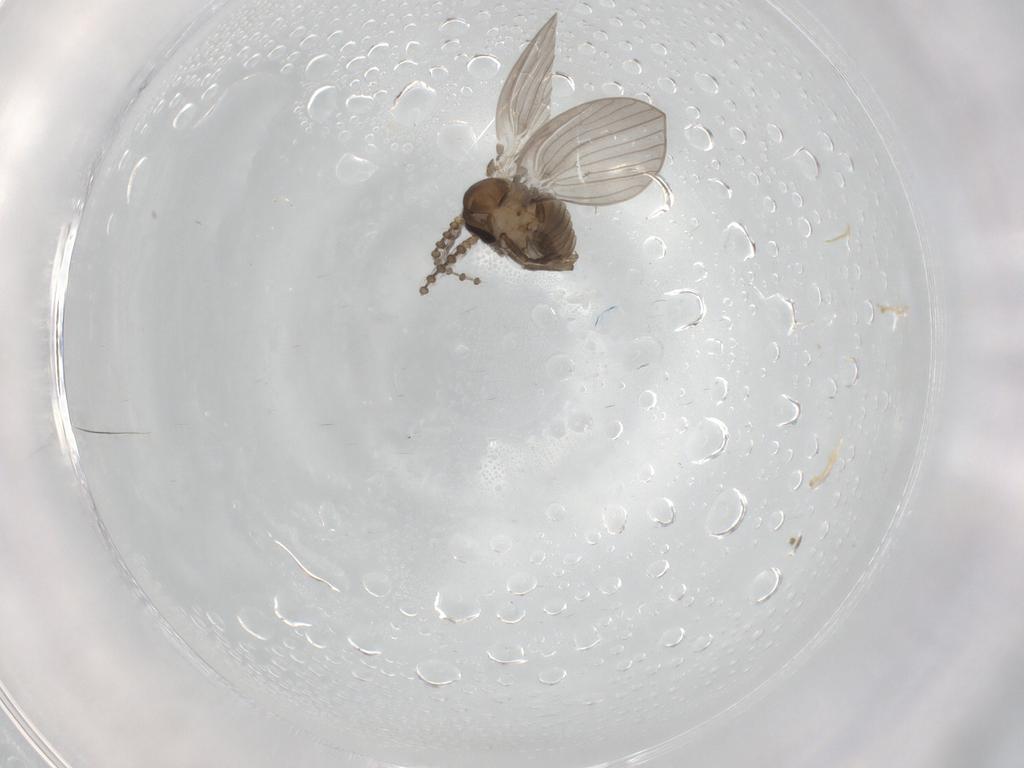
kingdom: Animalia
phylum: Arthropoda
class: Insecta
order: Diptera
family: Psychodidae
